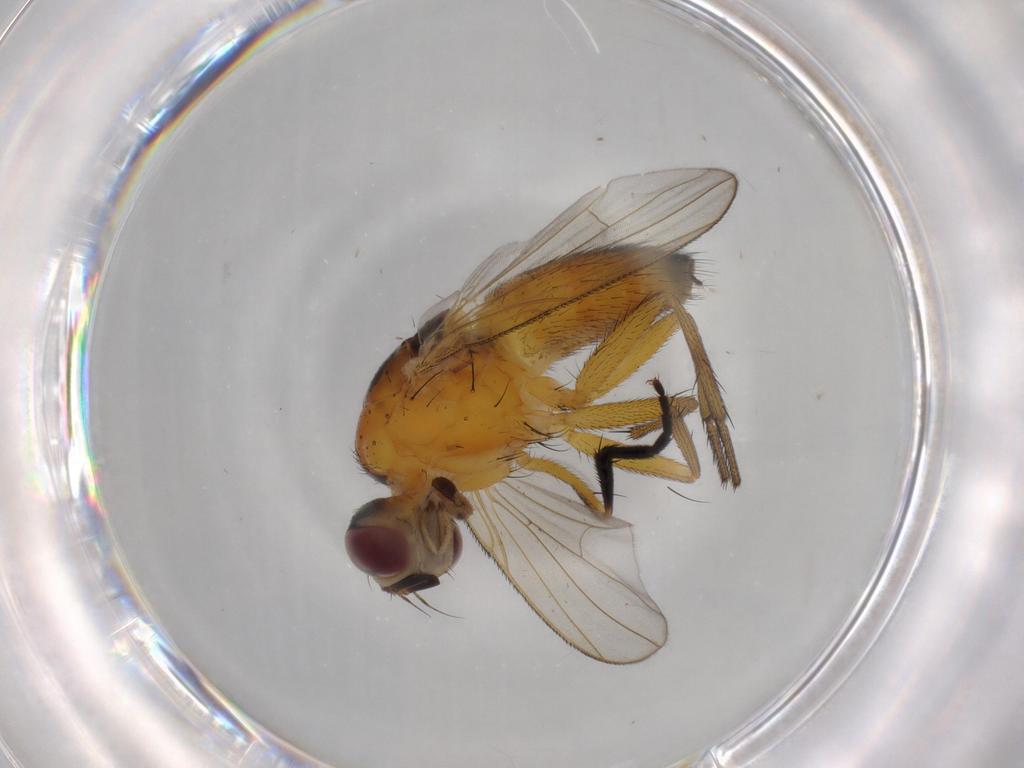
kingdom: Animalia
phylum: Arthropoda
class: Insecta
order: Diptera
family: Muscidae
